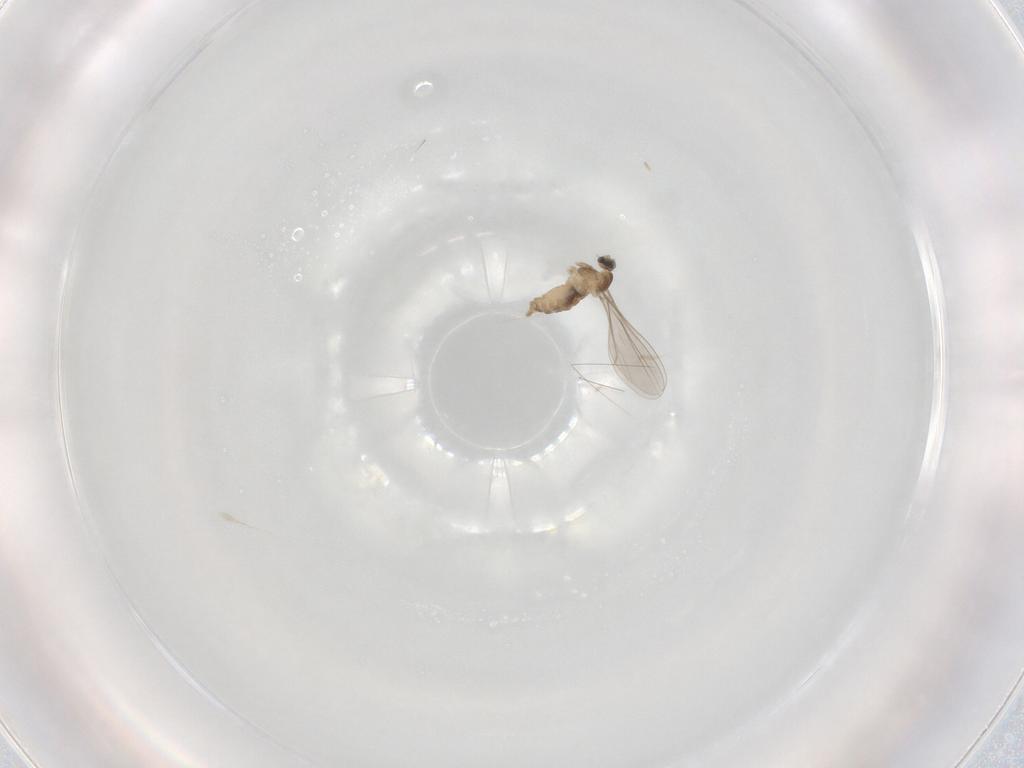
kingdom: Animalia
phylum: Arthropoda
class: Insecta
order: Diptera
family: Cecidomyiidae
